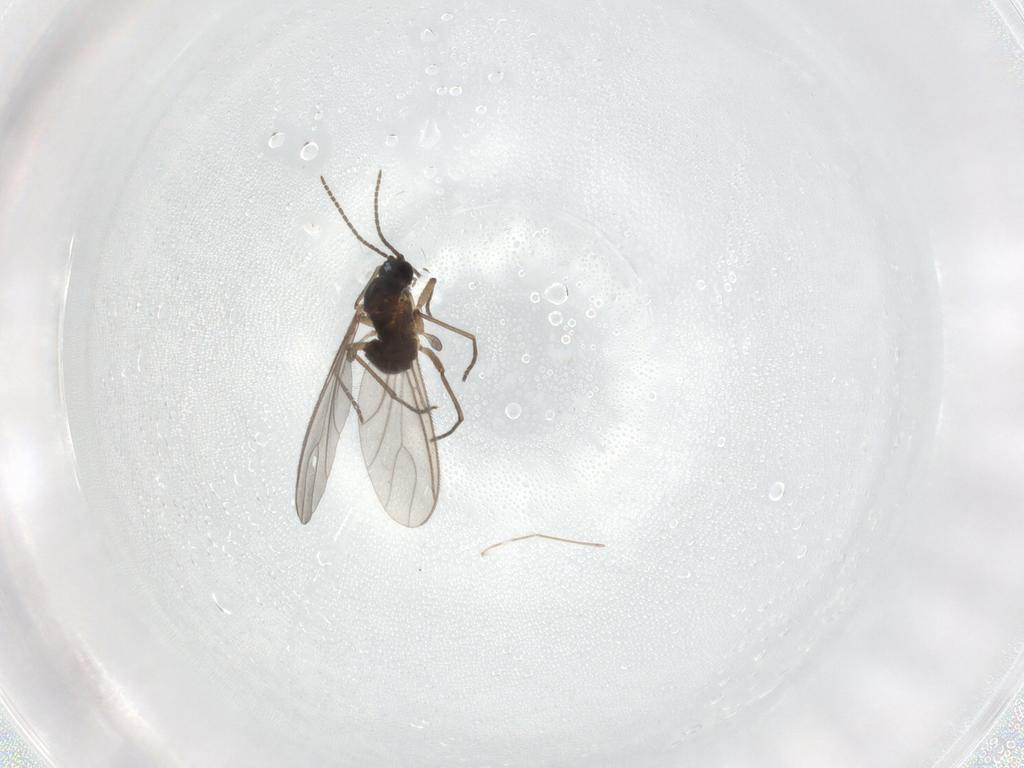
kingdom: Animalia
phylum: Arthropoda
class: Insecta
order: Diptera
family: Sciaridae
